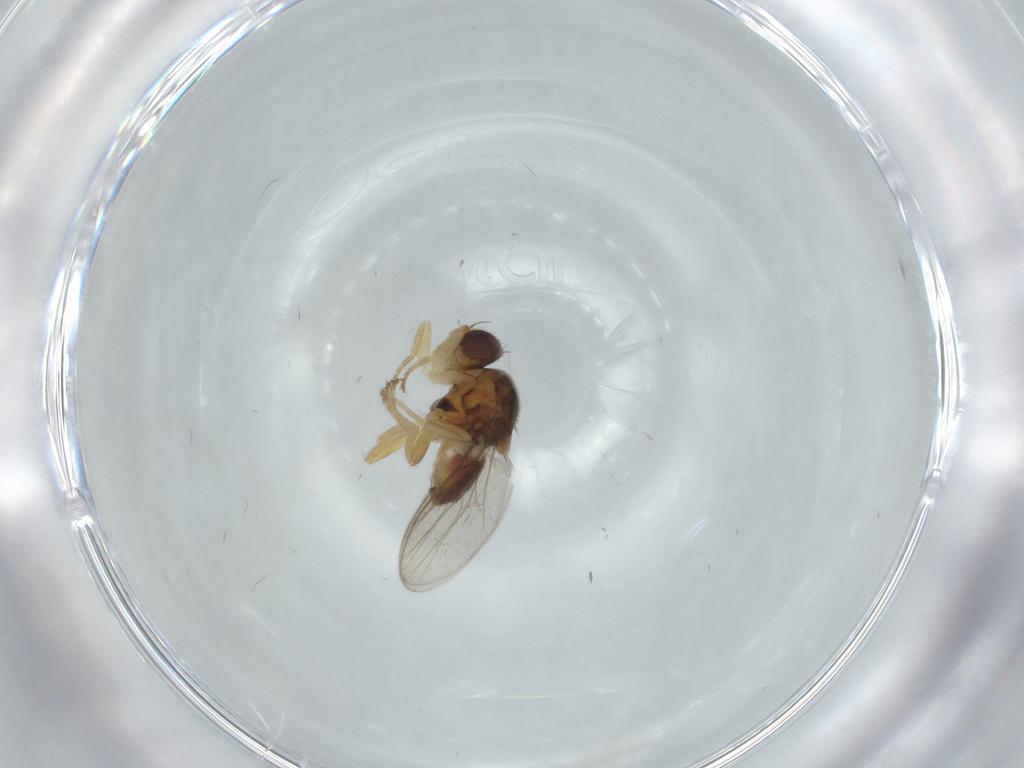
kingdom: Animalia
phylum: Arthropoda
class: Insecta
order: Diptera
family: Chloropidae
